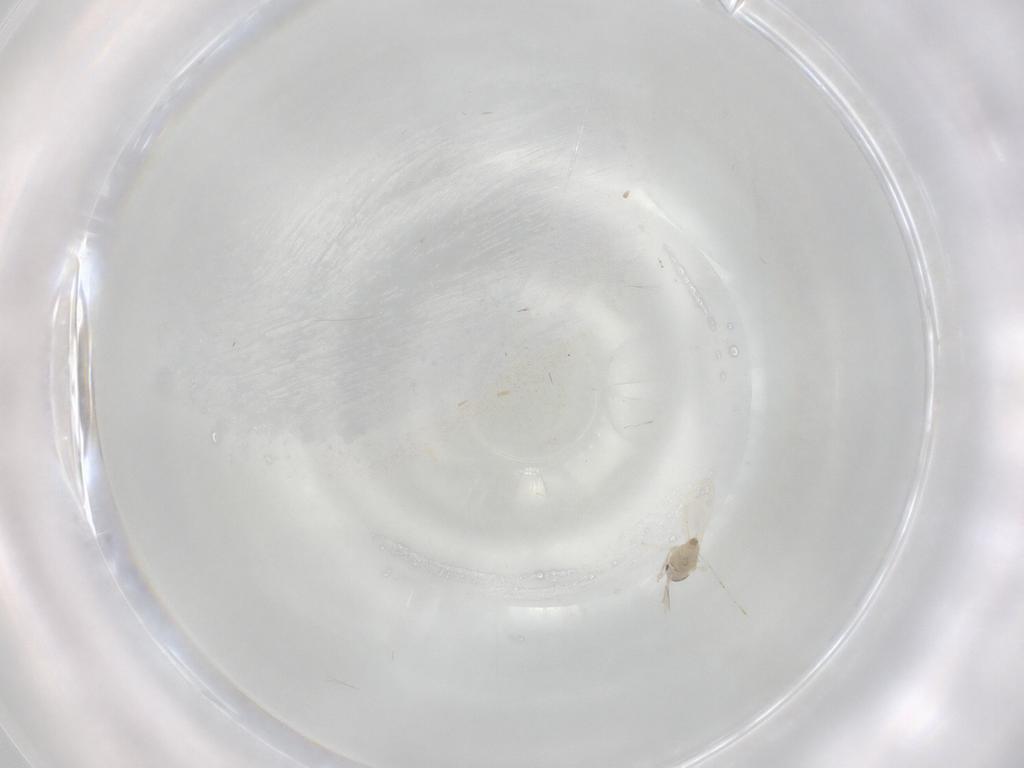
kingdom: Animalia
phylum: Arthropoda
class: Insecta
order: Diptera
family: Cecidomyiidae
